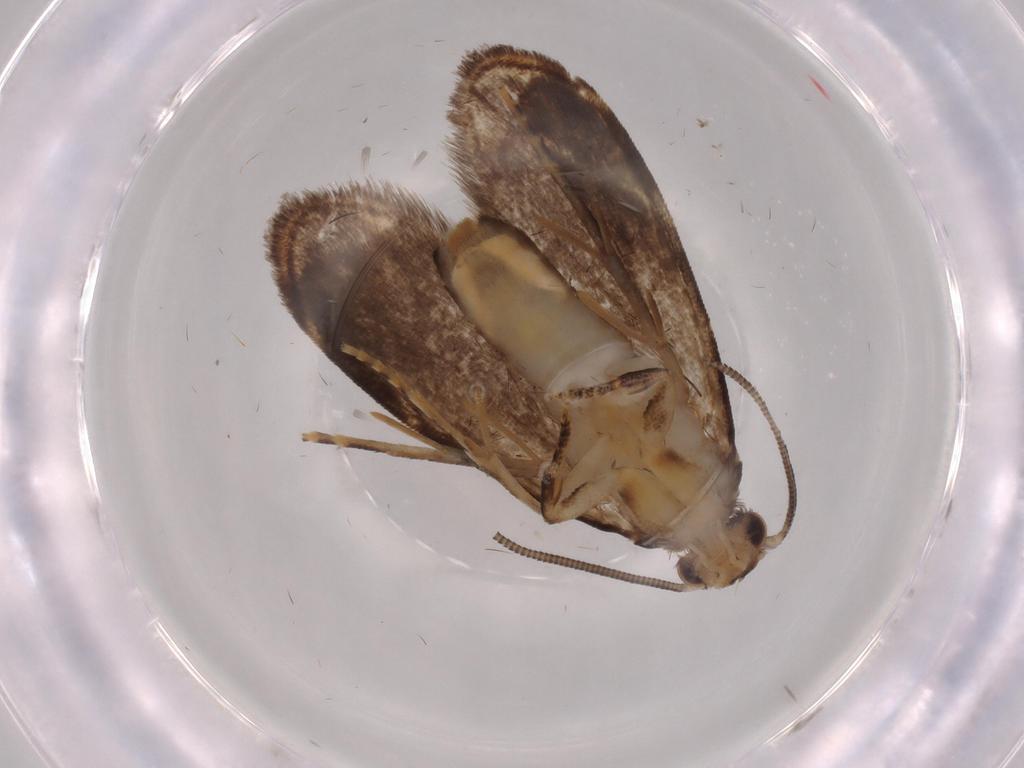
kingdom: Animalia
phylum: Arthropoda
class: Insecta
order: Lepidoptera
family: Dryadaulidae
